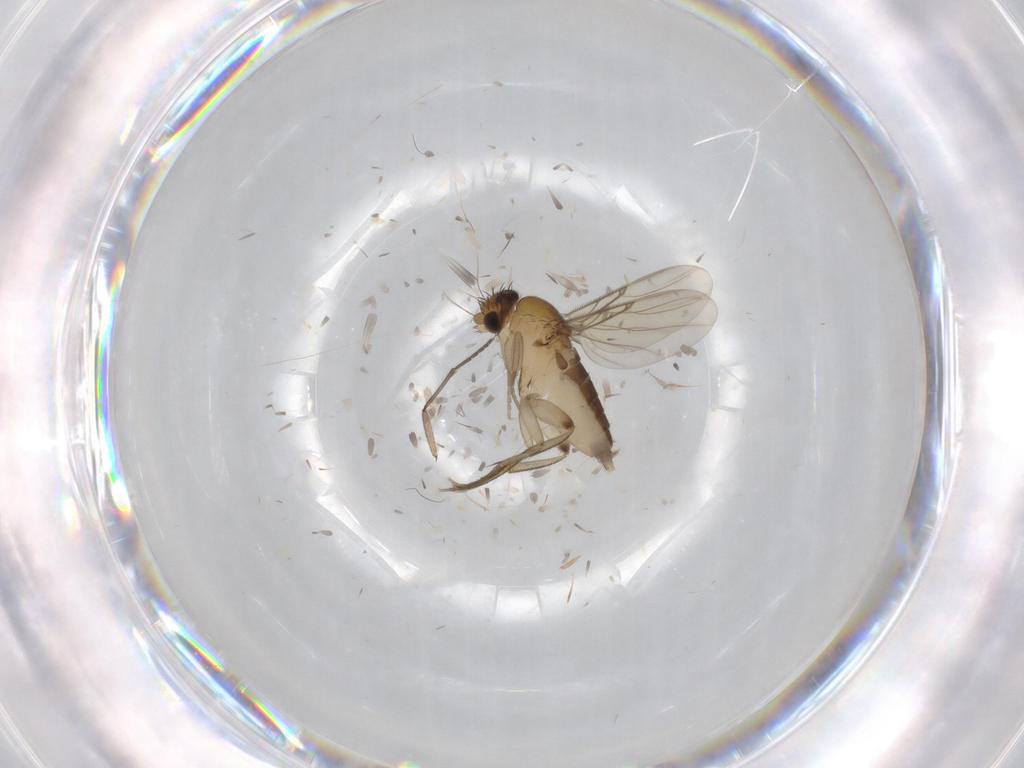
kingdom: Animalia
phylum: Arthropoda
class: Insecta
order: Diptera
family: Phoridae
